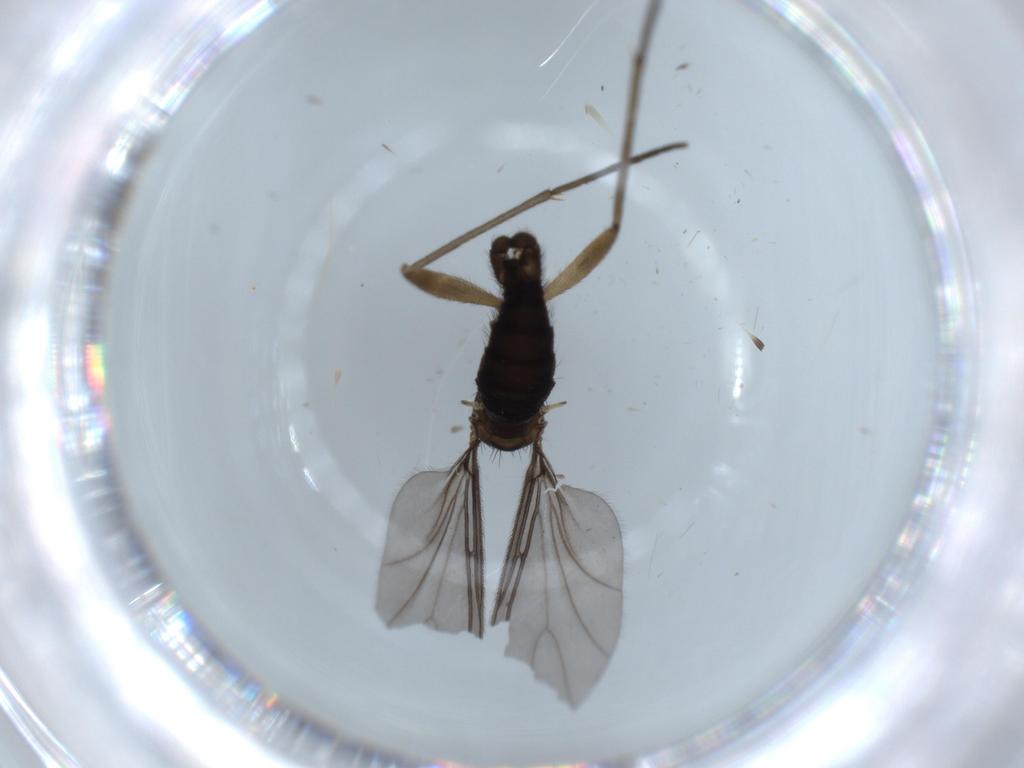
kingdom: Animalia
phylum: Arthropoda
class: Insecta
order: Diptera
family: Sciaridae
